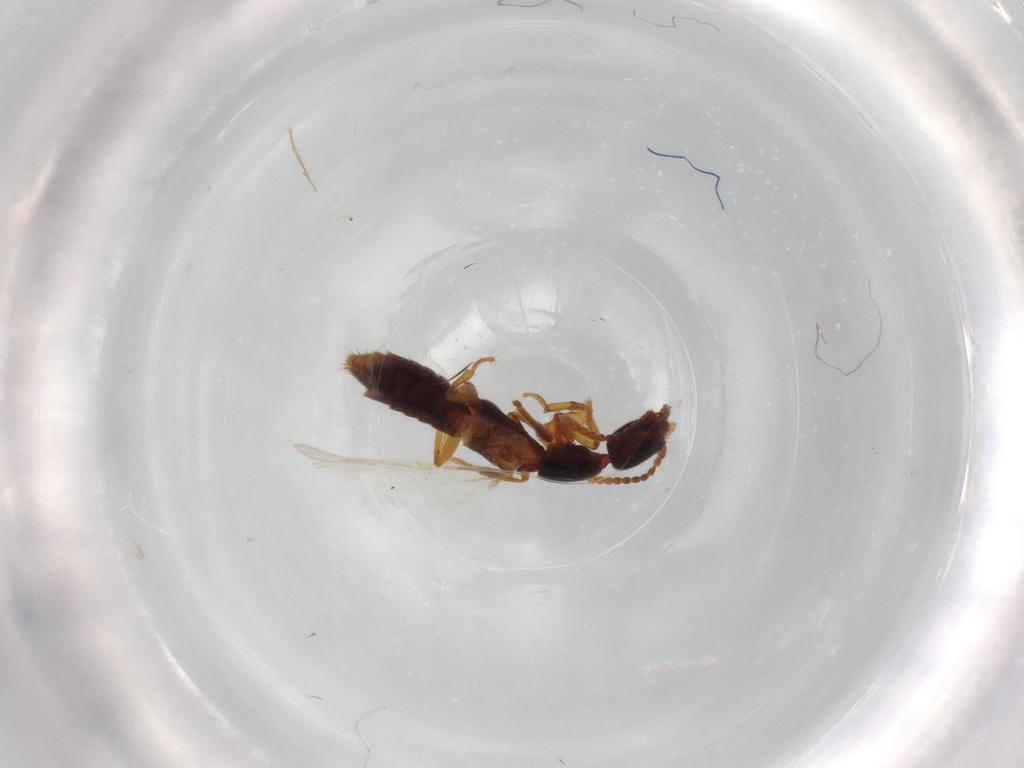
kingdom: Animalia
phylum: Arthropoda
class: Insecta
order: Coleoptera
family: Staphylinidae
